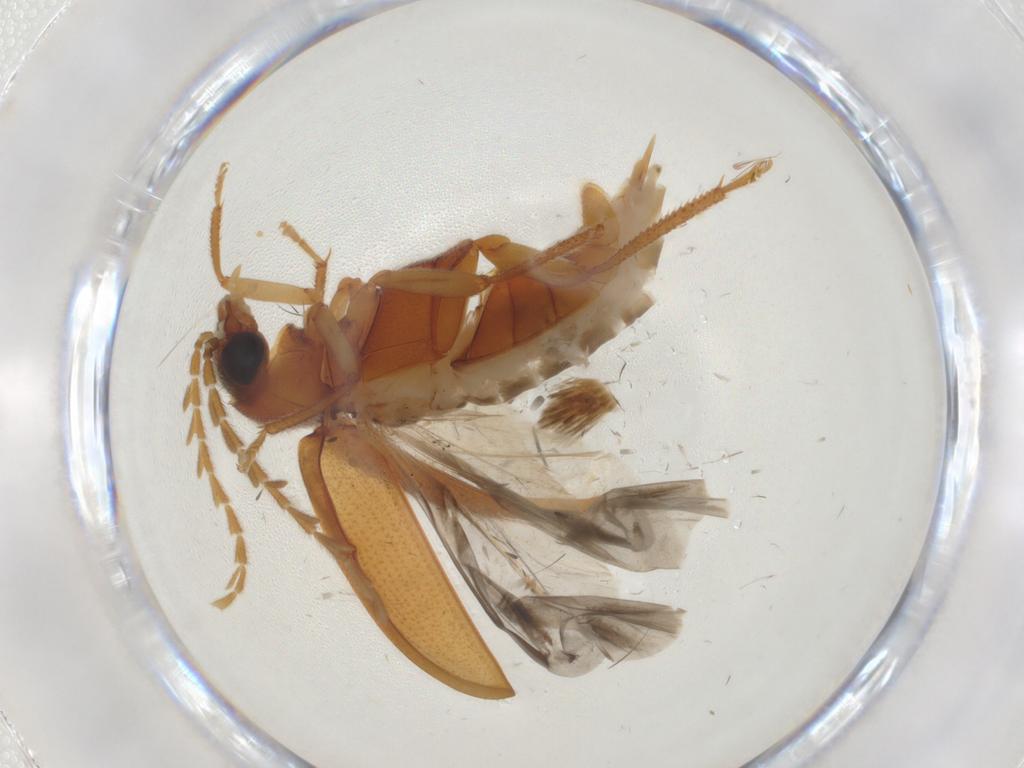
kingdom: Animalia
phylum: Arthropoda
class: Insecta
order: Coleoptera
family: Ptilodactylidae
